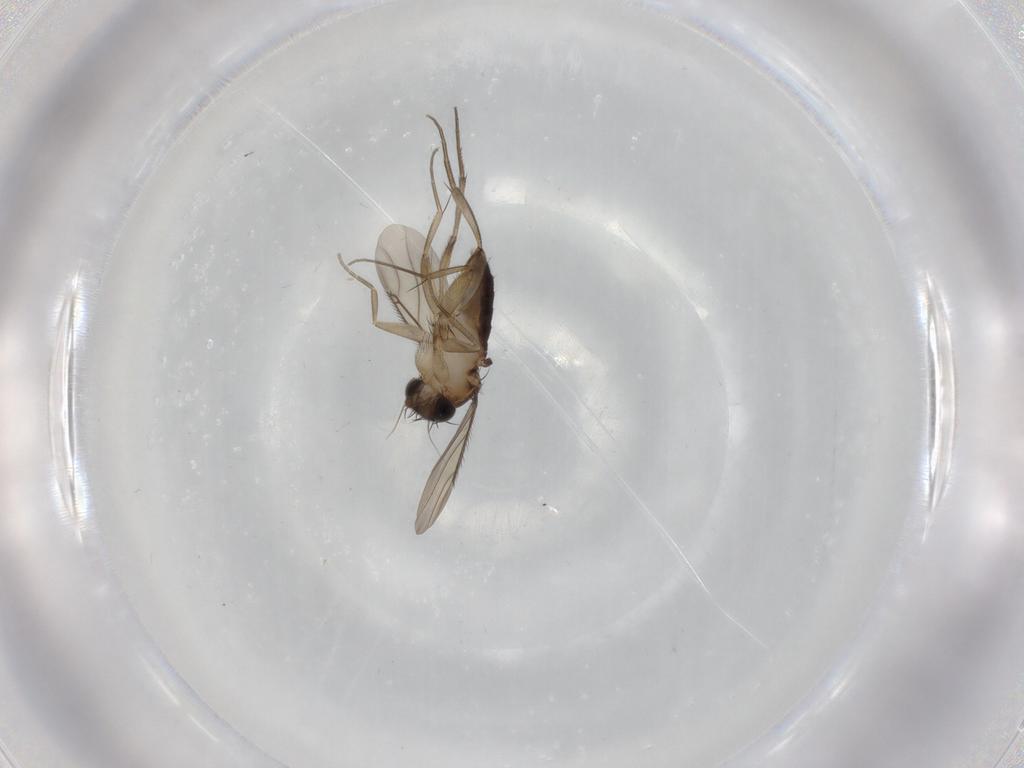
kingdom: Animalia
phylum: Arthropoda
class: Insecta
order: Diptera
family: Phoridae
